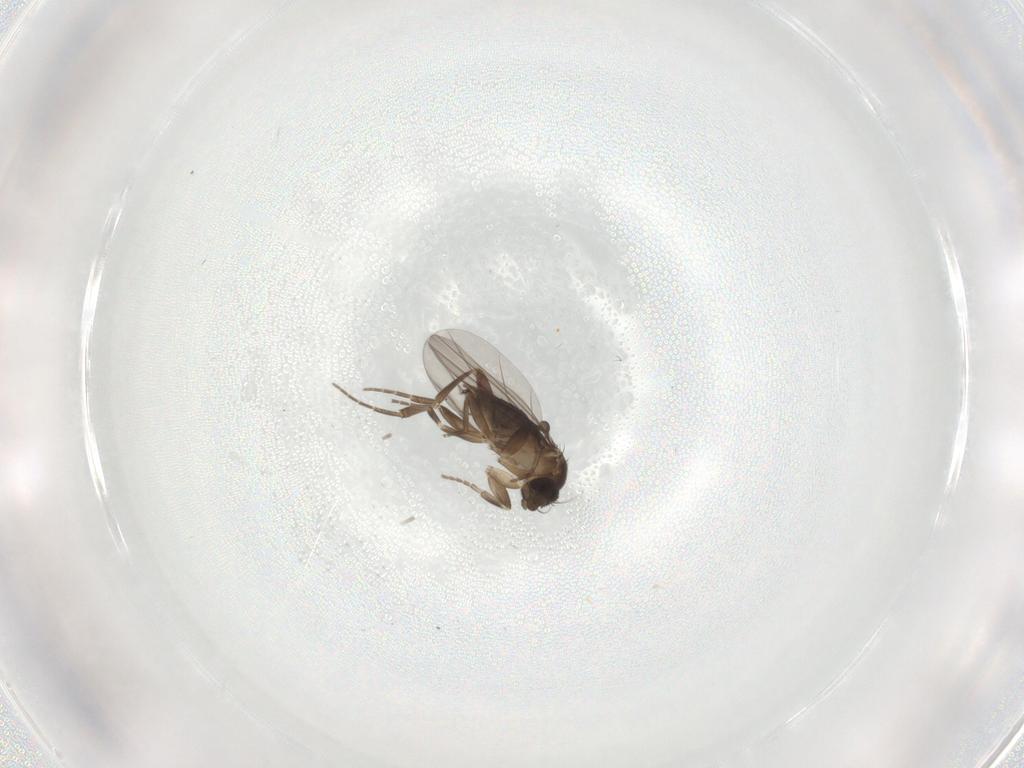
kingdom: Animalia
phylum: Arthropoda
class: Insecta
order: Diptera
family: Phoridae
